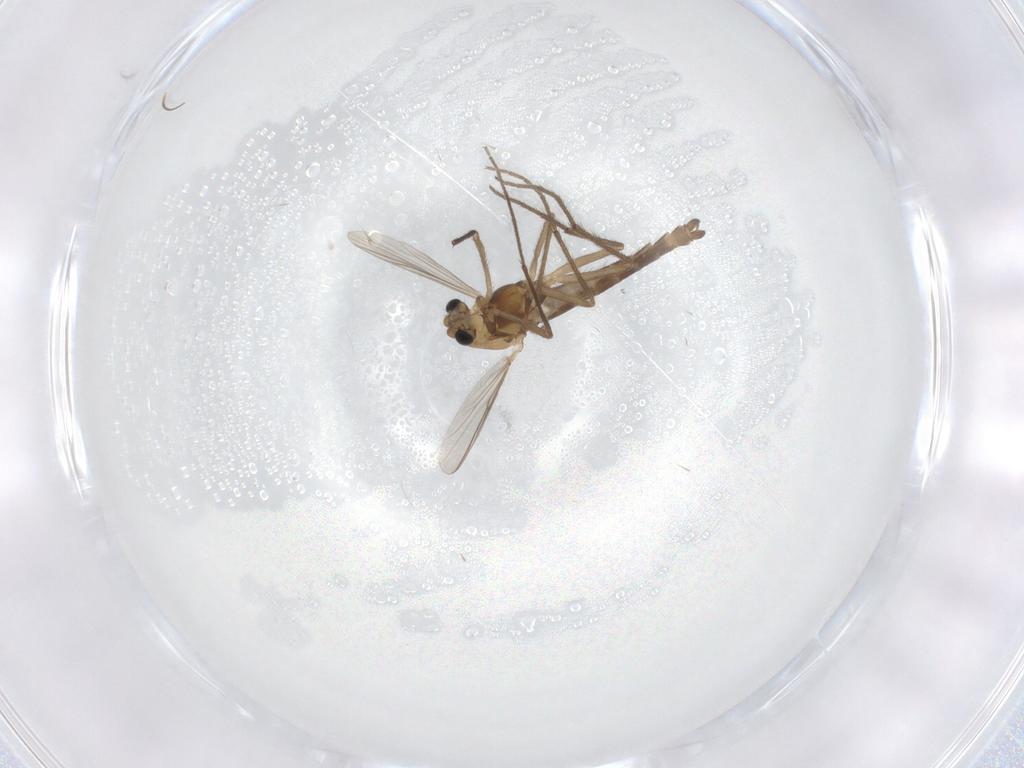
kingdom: Animalia
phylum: Arthropoda
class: Insecta
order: Diptera
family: Chironomidae
